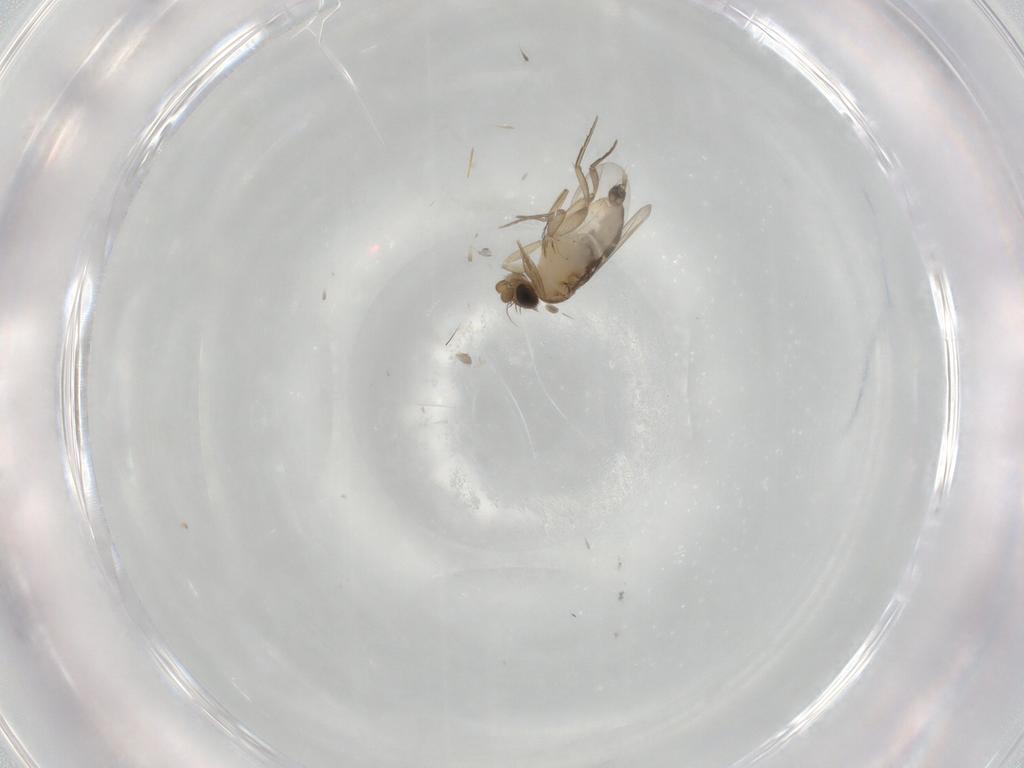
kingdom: Animalia
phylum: Arthropoda
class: Insecta
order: Diptera
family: Phoridae
